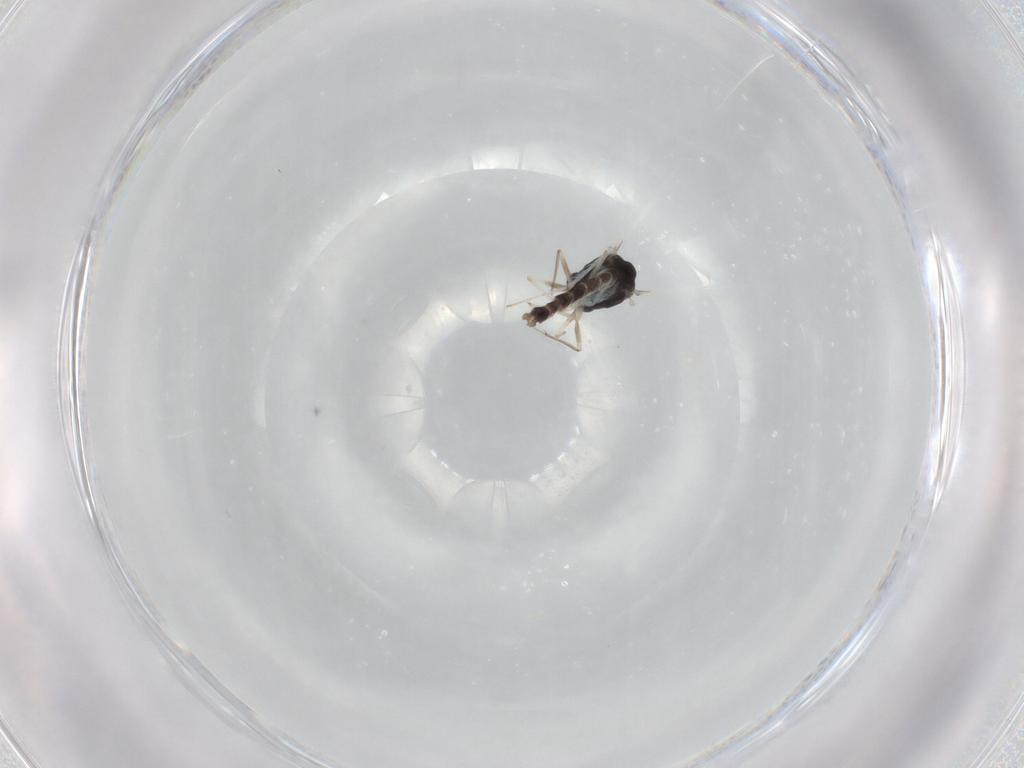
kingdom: Animalia
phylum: Arthropoda
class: Insecta
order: Diptera
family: Chironomidae
